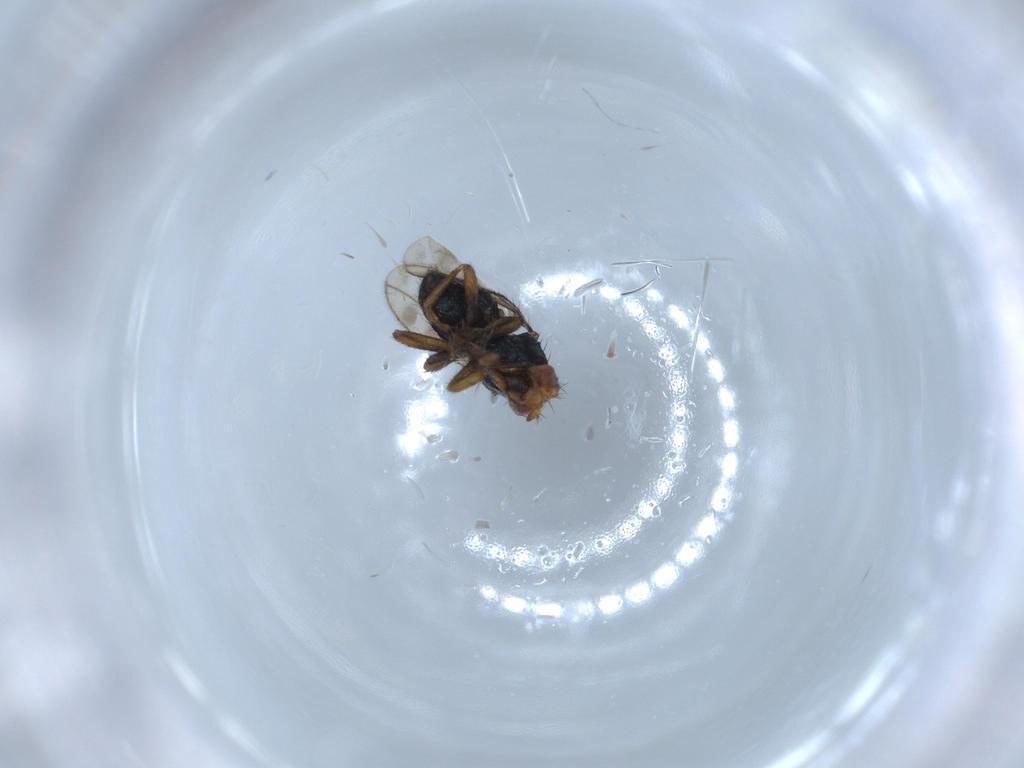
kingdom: Animalia
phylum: Arthropoda
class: Insecta
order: Diptera
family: Sphaeroceridae
